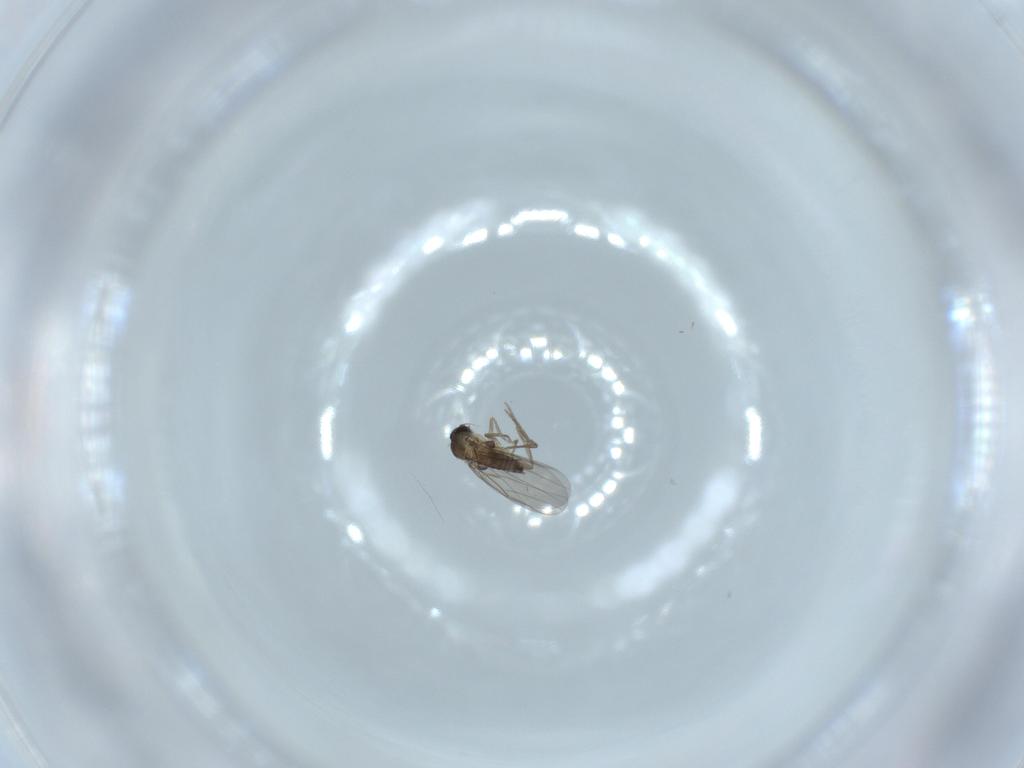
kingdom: Animalia
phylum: Arthropoda
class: Insecta
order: Diptera
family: Phoridae
